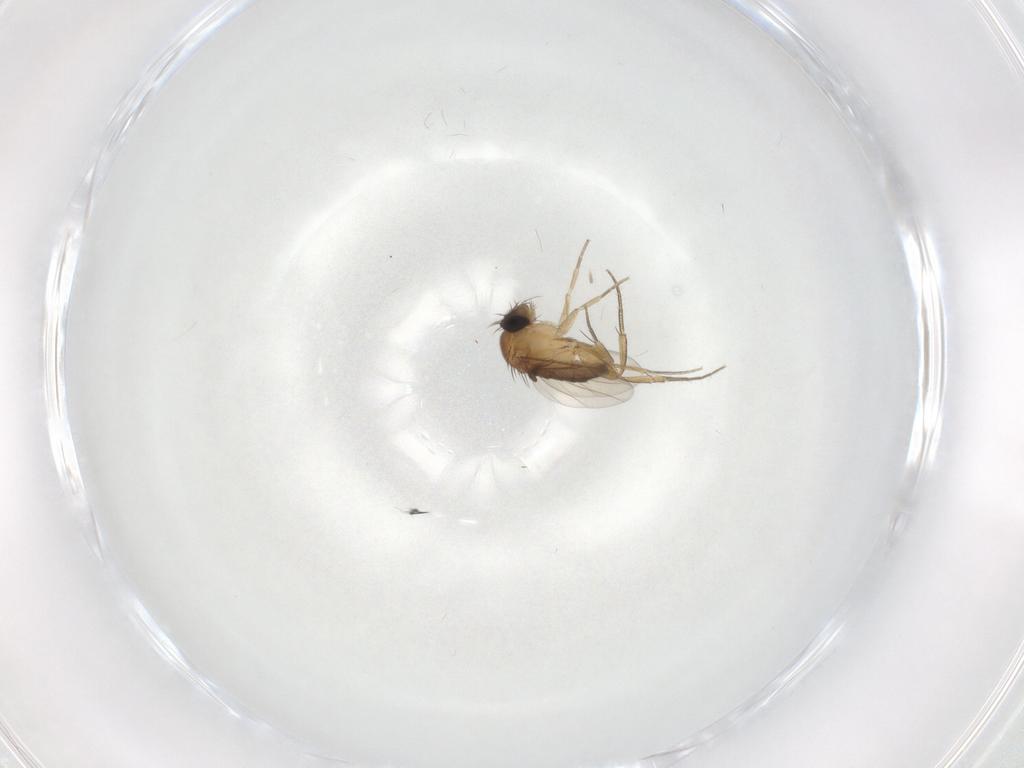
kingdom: Animalia
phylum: Arthropoda
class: Insecta
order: Diptera
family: Phoridae
